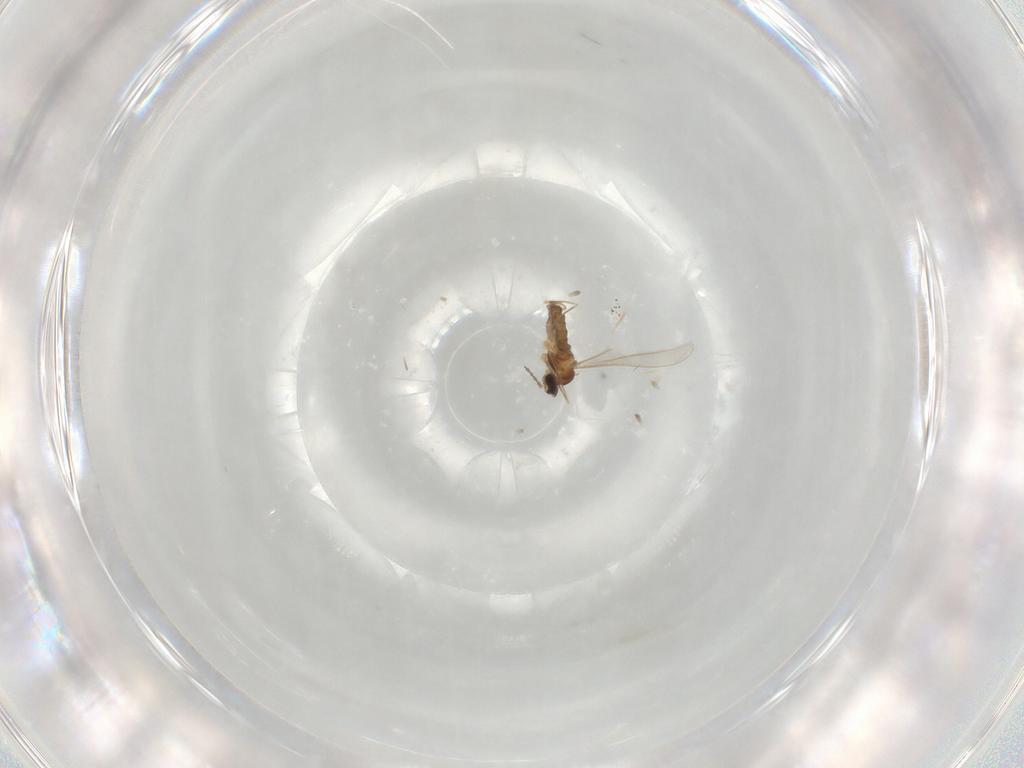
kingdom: Animalia
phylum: Arthropoda
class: Insecta
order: Diptera
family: Cecidomyiidae
